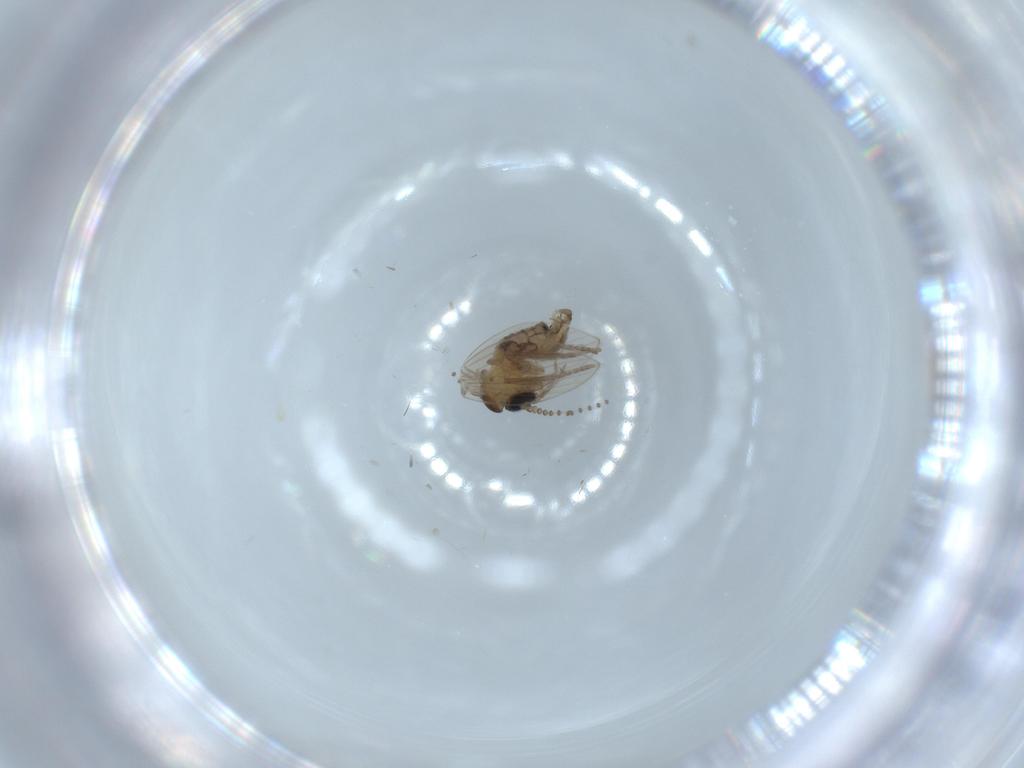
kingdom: Animalia
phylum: Arthropoda
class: Insecta
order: Diptera
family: Psychodidae
